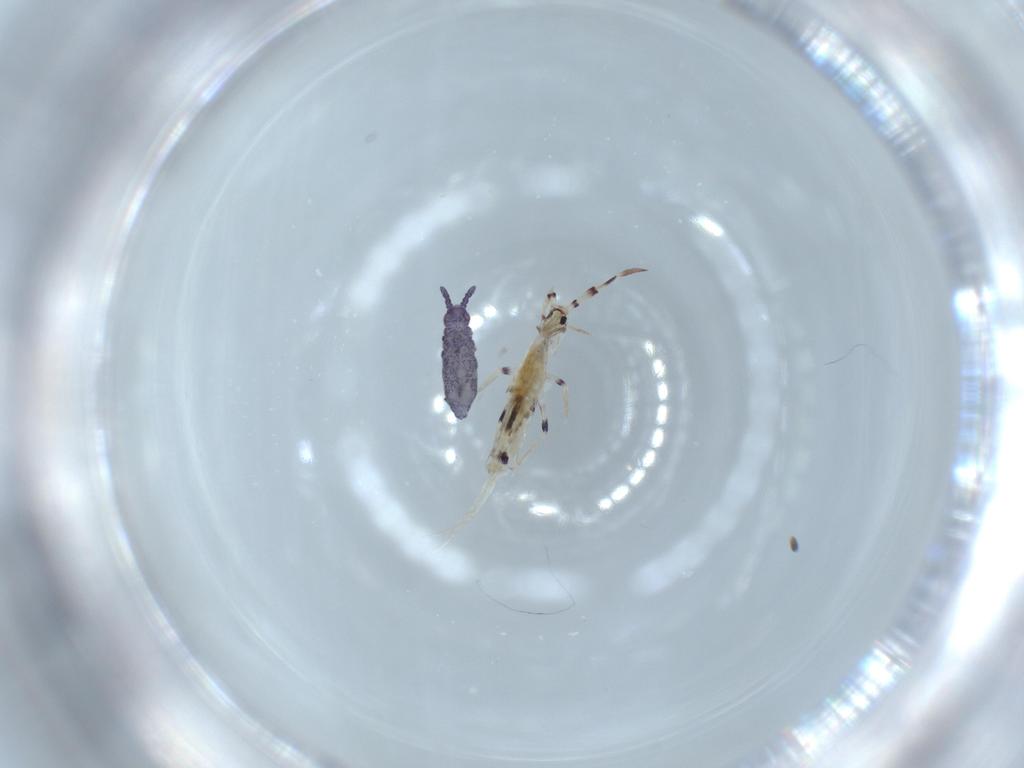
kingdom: Animalia
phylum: Arthropoda
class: Collembola
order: Entomobryomorpha
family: Entomobryidae
